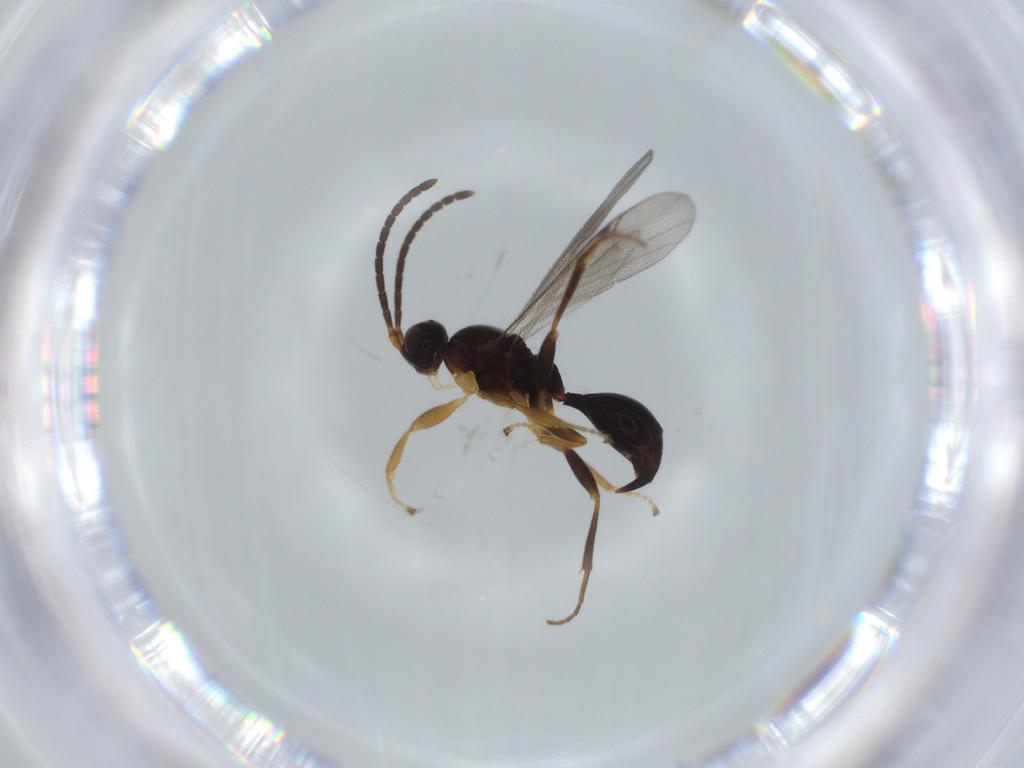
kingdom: Animalia
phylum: Arthropoda
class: Insecta
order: Hymenoptera
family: Proctotrupidae
